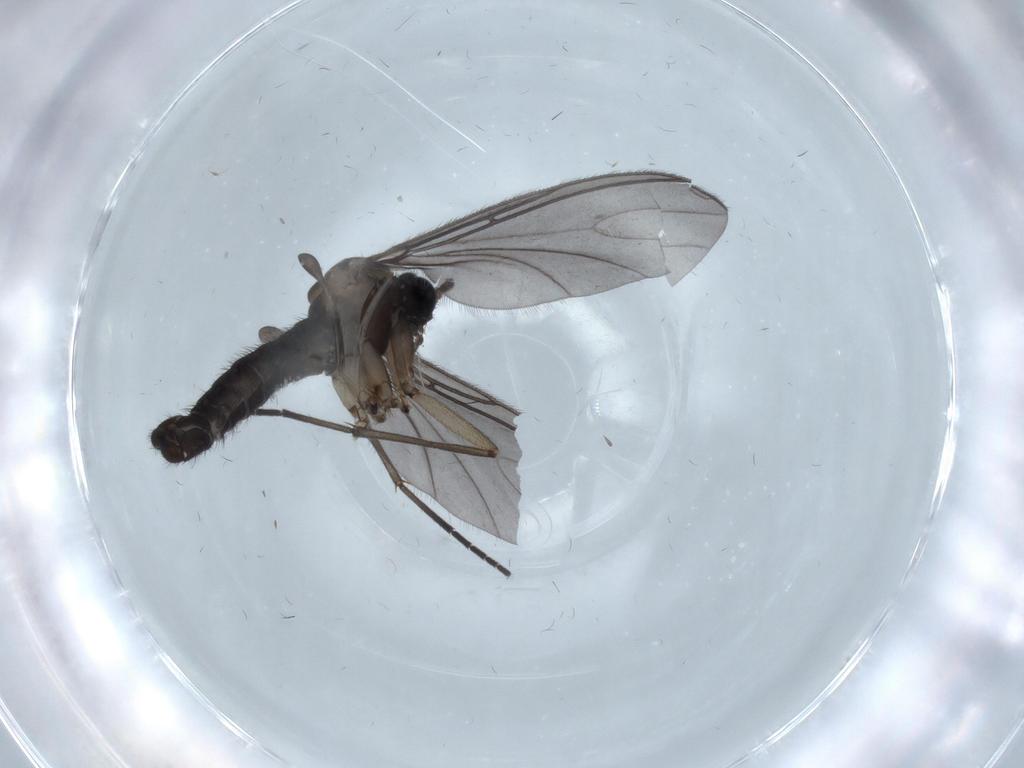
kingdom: Animalia
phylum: Arthropoda
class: Insecta
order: Diptera
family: Sciaridae
